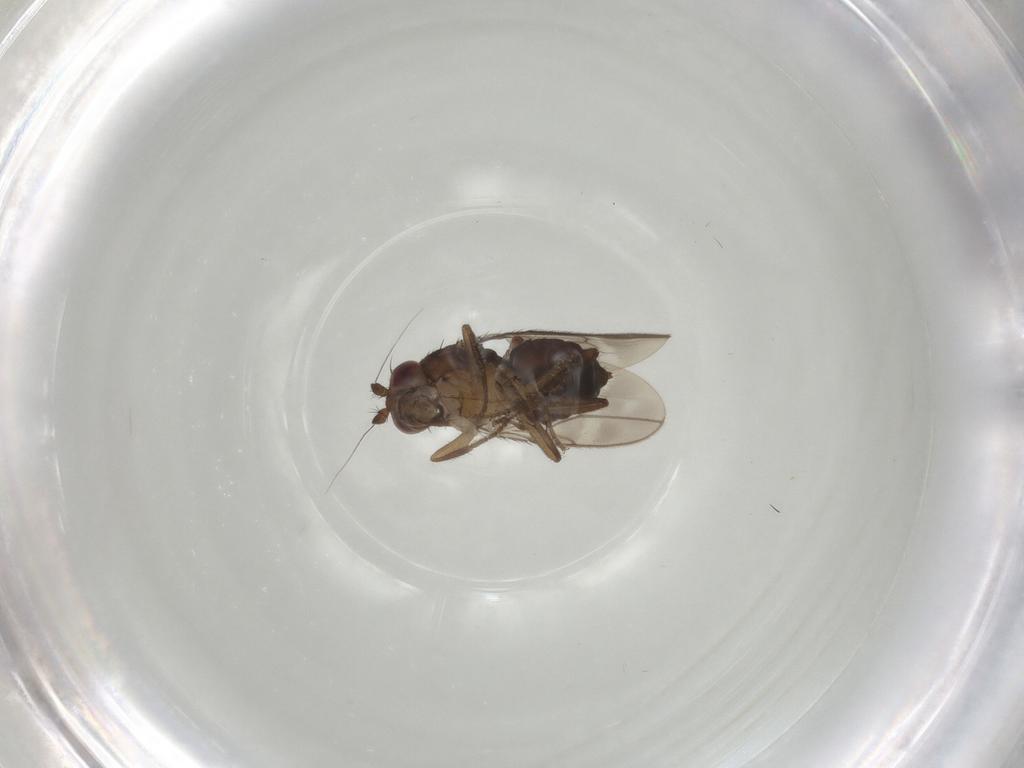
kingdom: Animalia
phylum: Arthropoda
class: Insecta
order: Diptera
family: Sphaeroceridae
